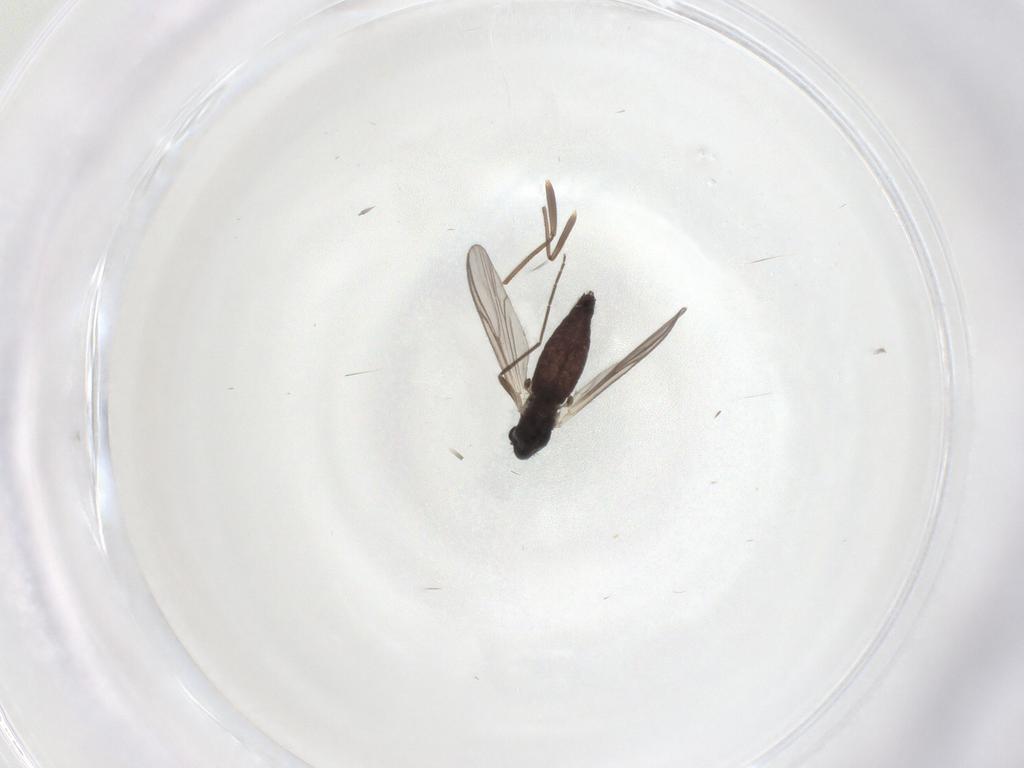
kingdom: Animalia
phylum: Arthropoda
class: Insecta
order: Diptera
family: Chironomidae
